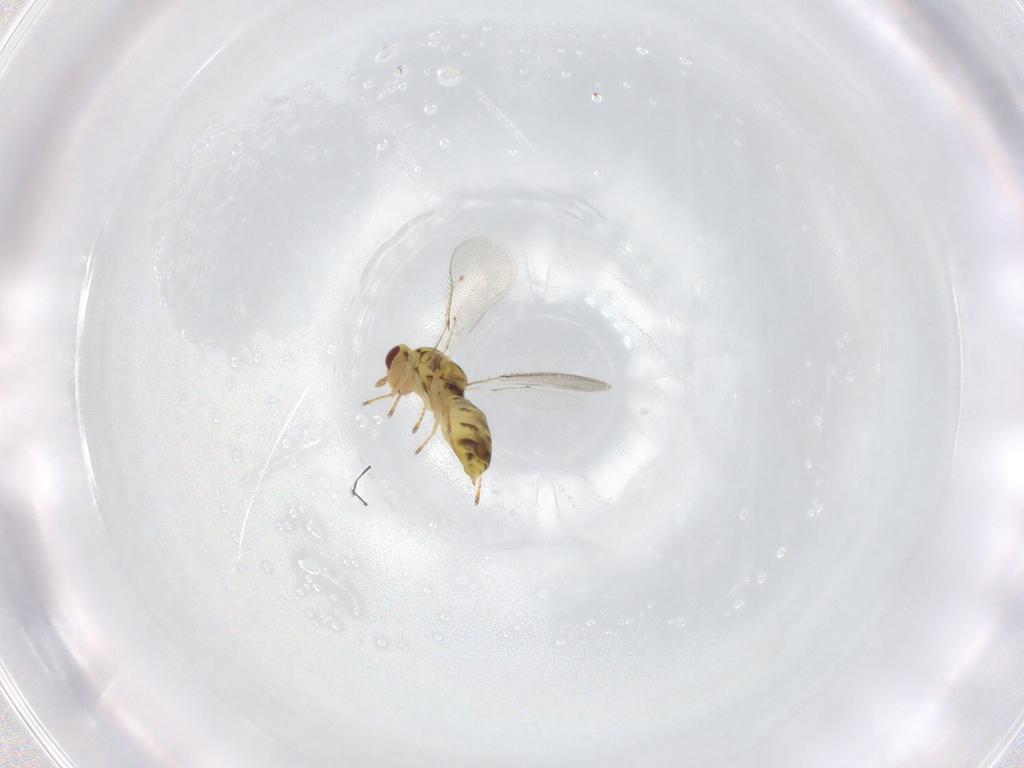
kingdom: Animalia
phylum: Arthropoda
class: Insecta
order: Hymenoptera
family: Eulophidae
